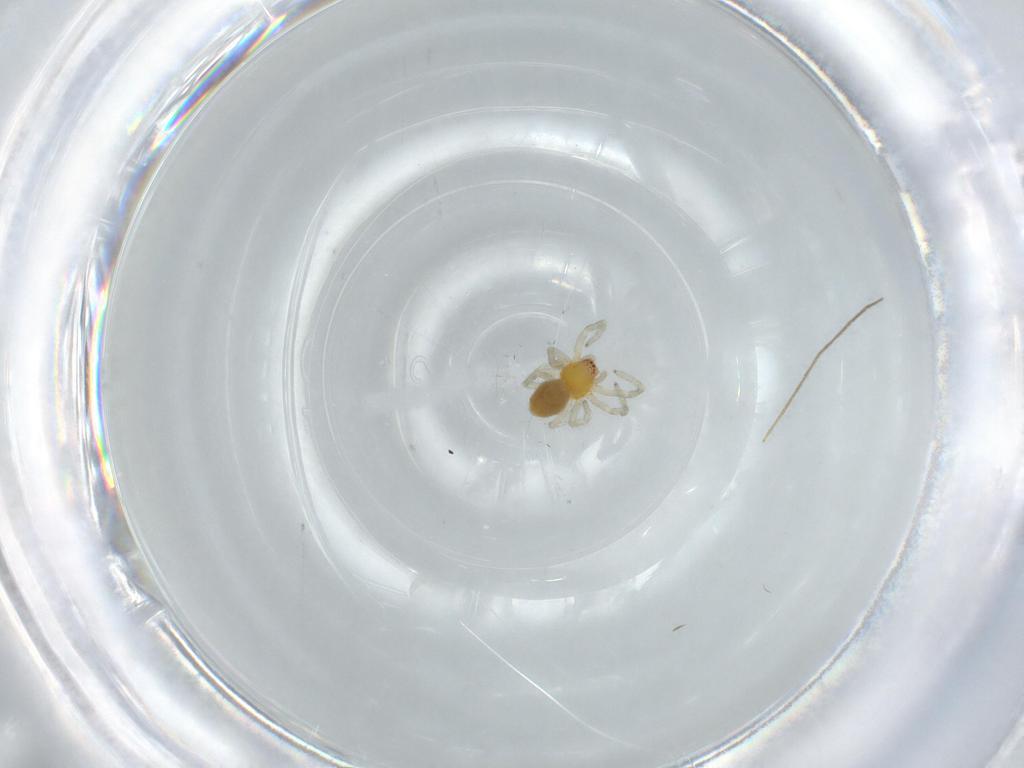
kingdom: Animalia
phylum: Arthropoda
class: Arachnida
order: Araneae
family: Dictynidae
